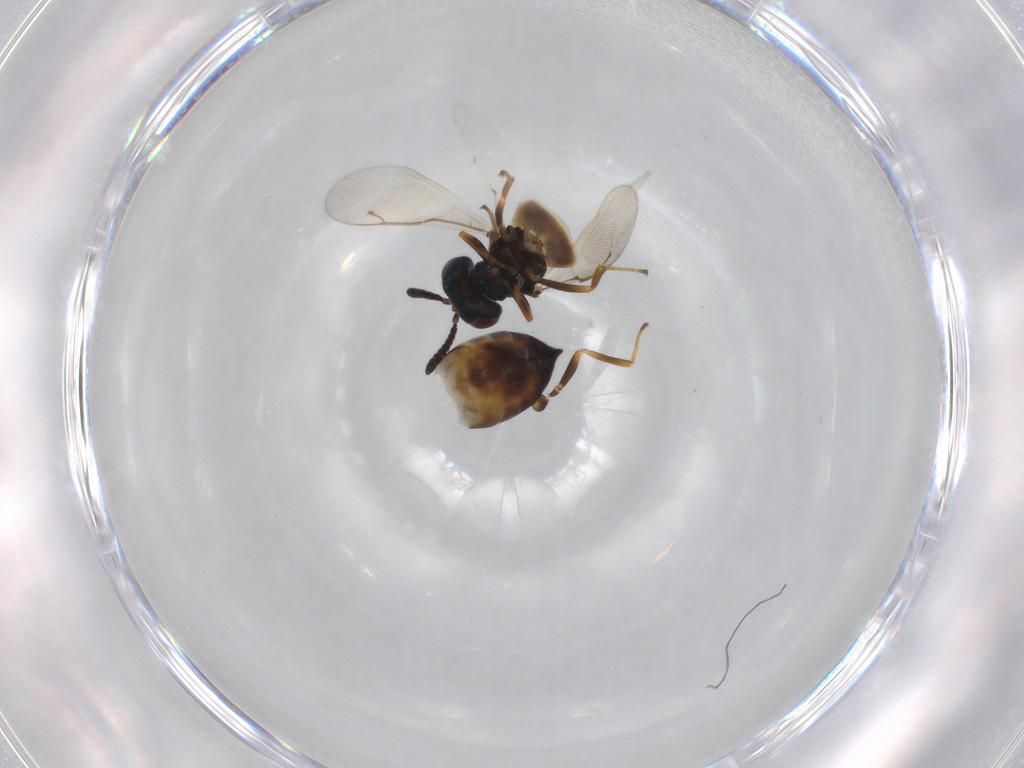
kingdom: Animalia
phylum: Arthropoda
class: Insecta
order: Hymenoptera
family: Pteromalidae
